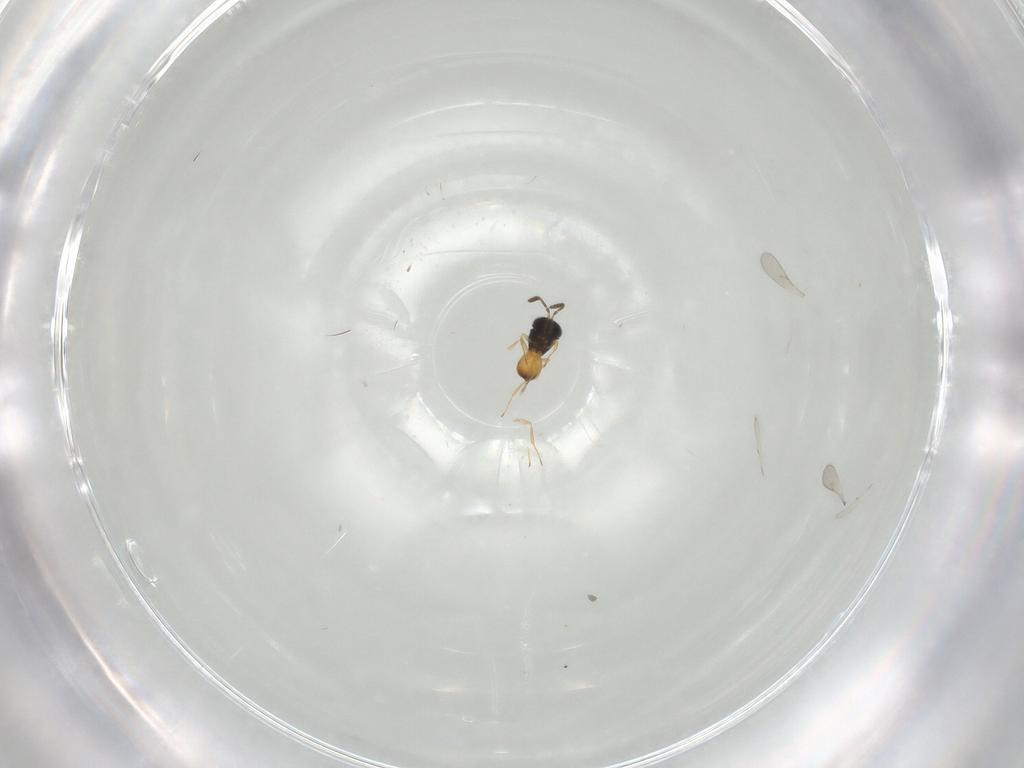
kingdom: Animalia
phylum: Arthropoda
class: Insecta
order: Hymenoptera
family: Scelionidae
